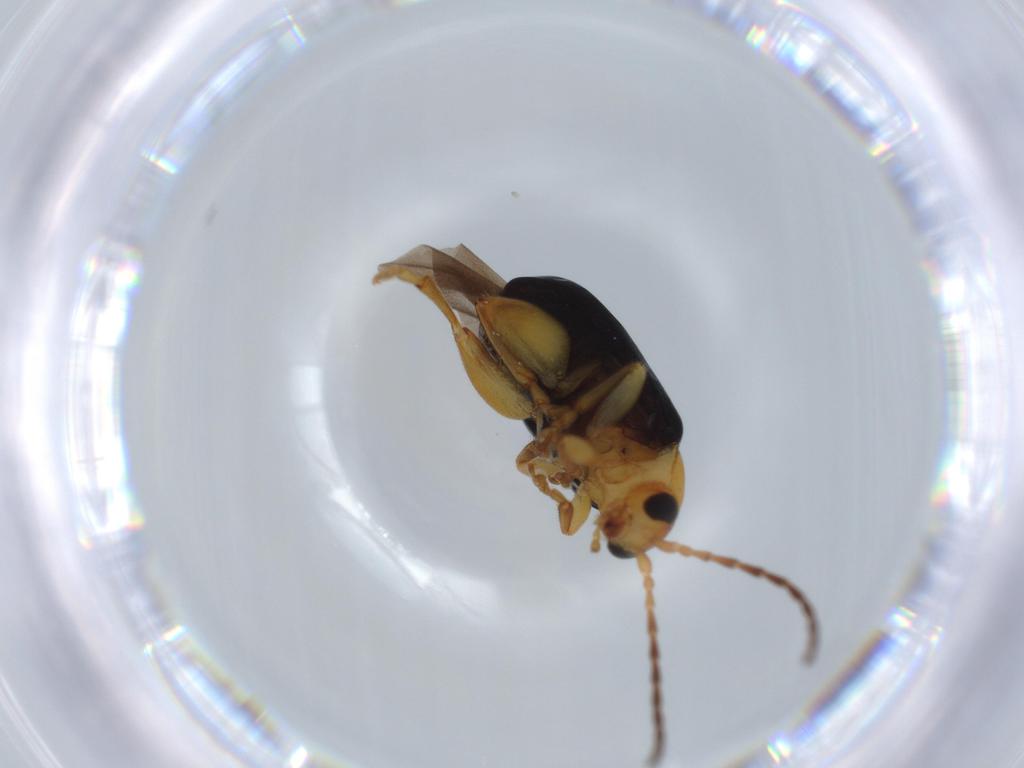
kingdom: Animalia
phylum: Arthropoda
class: Insecta
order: Coleoptera
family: Chrysomelidae
